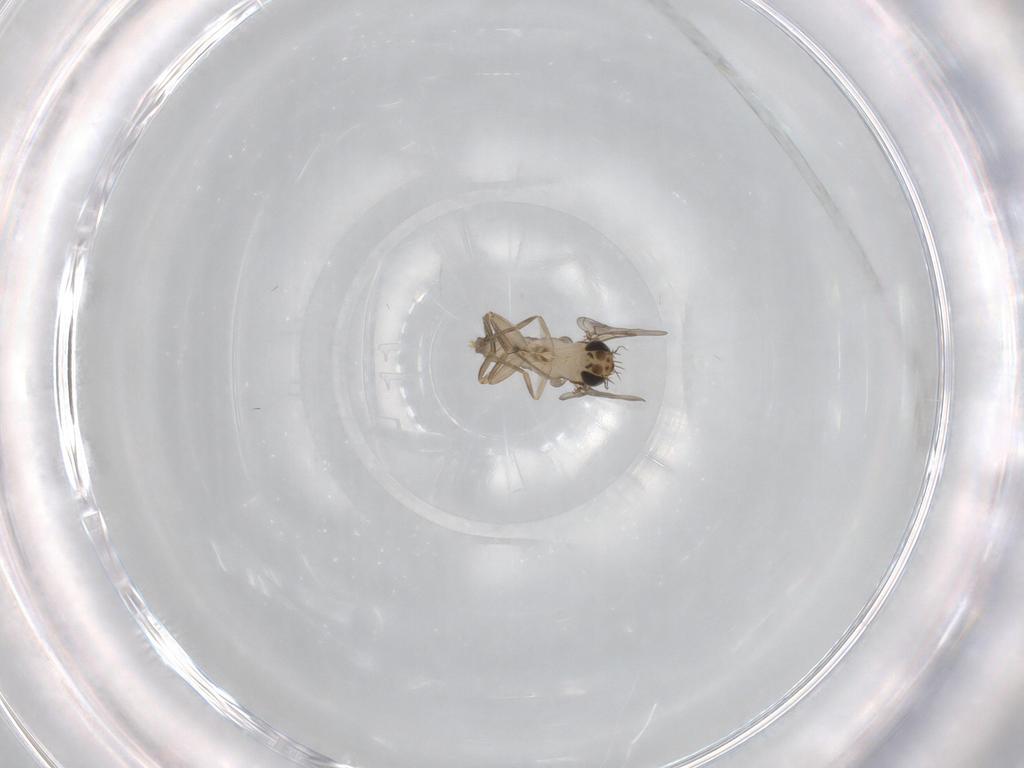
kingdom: Animalia
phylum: Arthropoda
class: Insecta
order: Diptera
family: Phoridae
